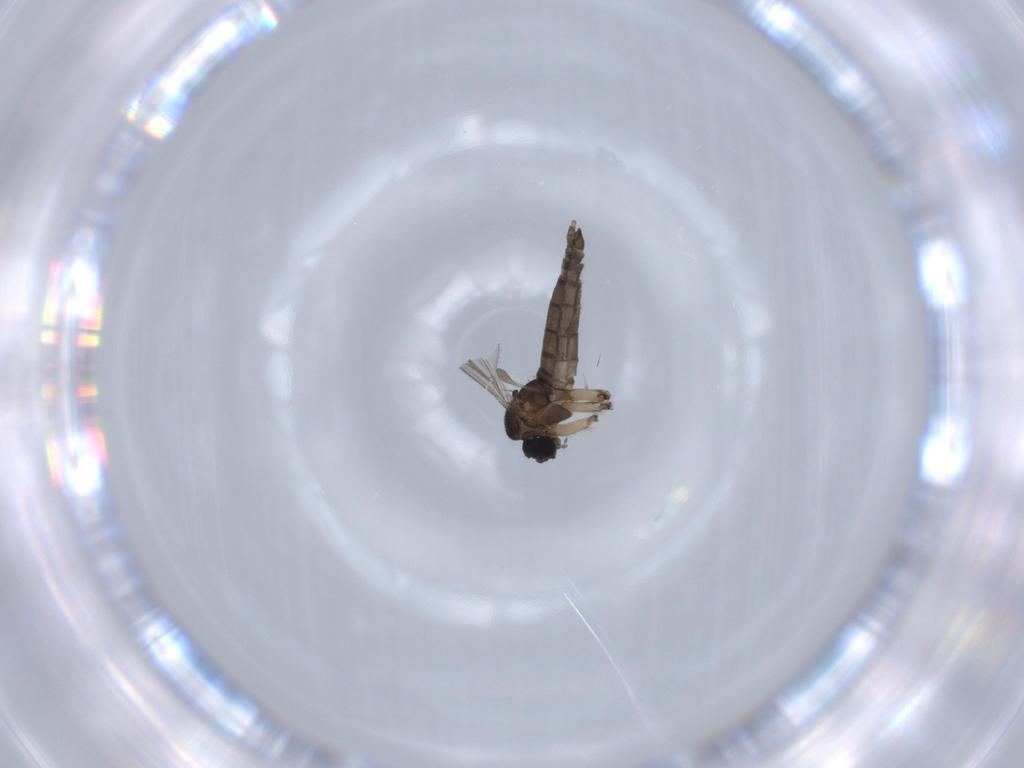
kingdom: Animalia
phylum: Arthropoda
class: Insecta
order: Diptera
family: Sciaridae
